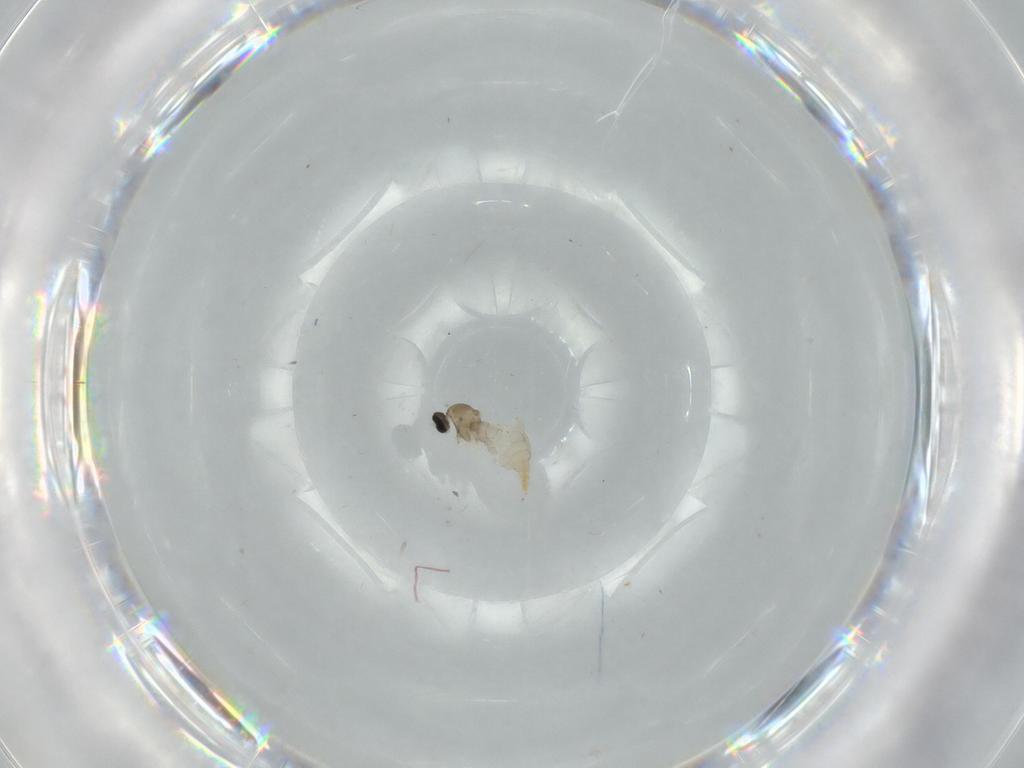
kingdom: Animalia
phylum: Arthropoda
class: Insecta
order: Diptera
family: Cecidomyiidae
